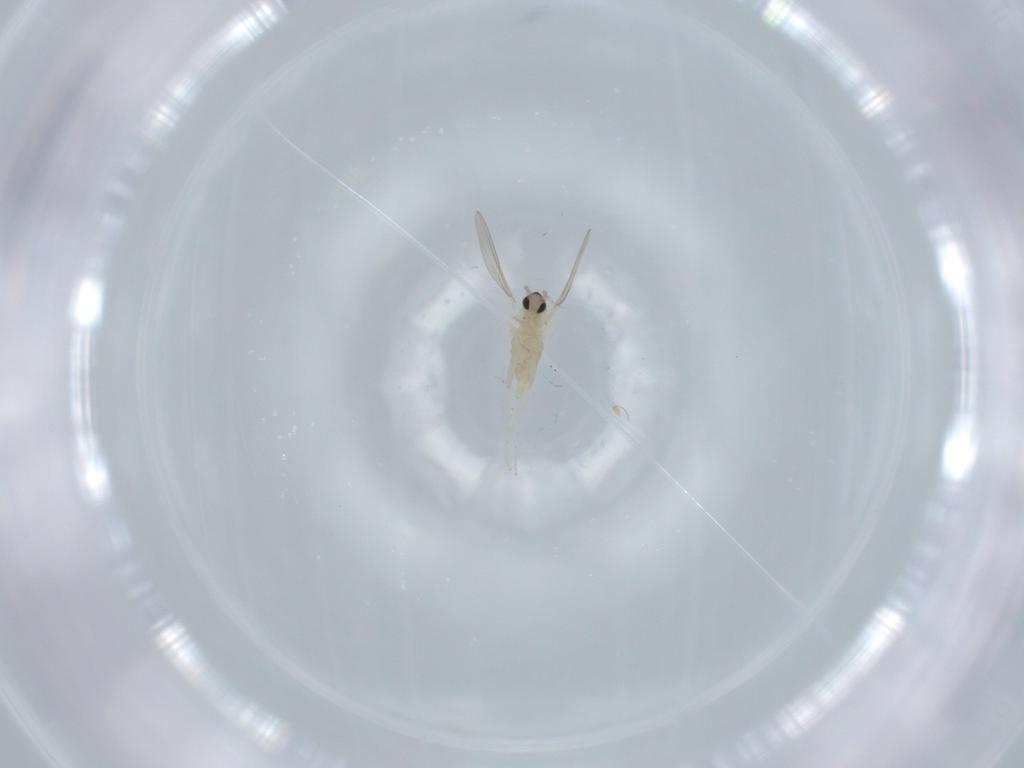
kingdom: Animalia
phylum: Arthropoda
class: Insecta
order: Diptera
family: Cecidomyiidae
